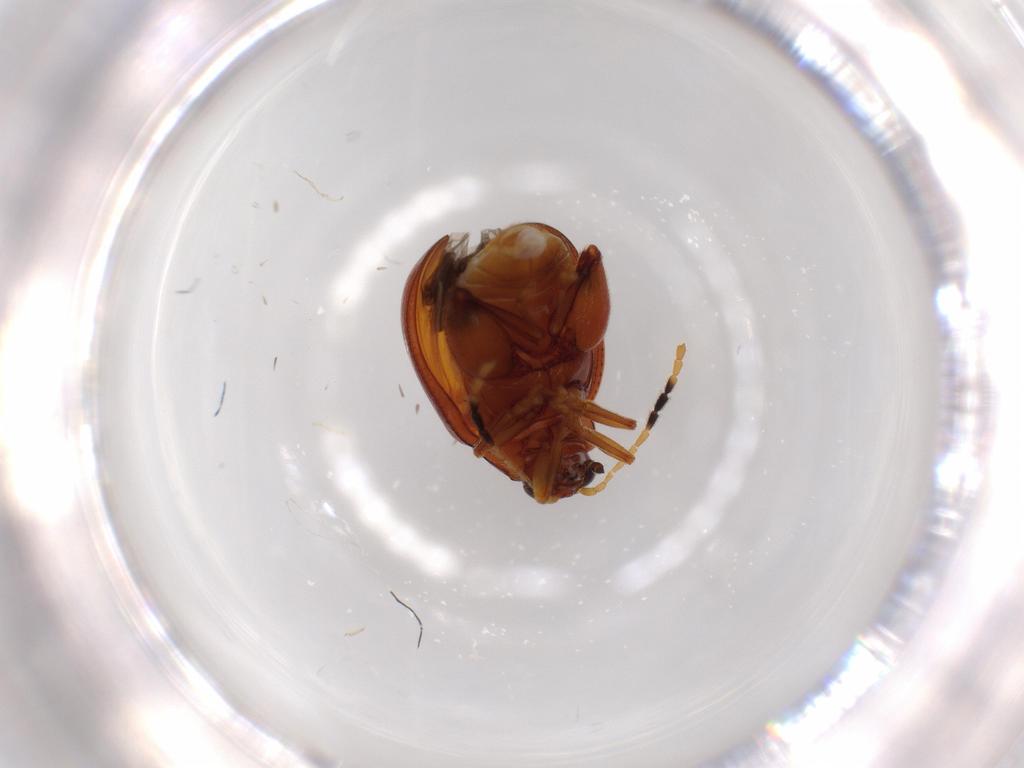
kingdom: Animalia
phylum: Arthropoda
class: Insecta
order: Coleoptera
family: Chrysomelidae
